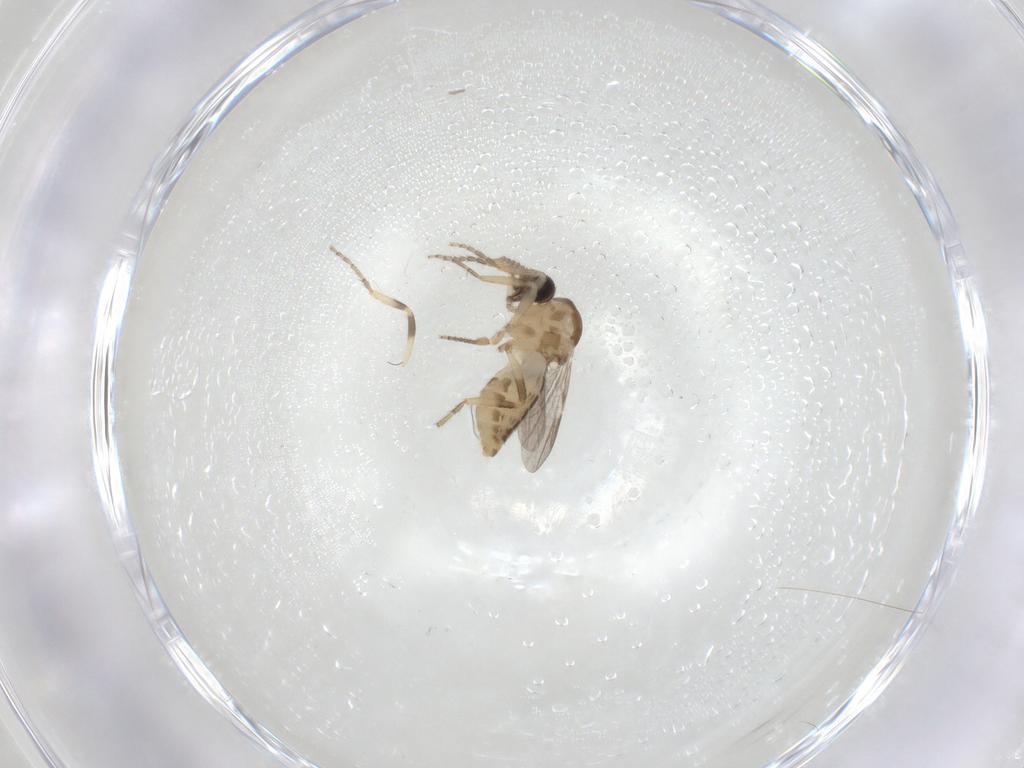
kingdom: Animalia
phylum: Arthropoda
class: Insecta
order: Diptera
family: Ceratopogonidae
